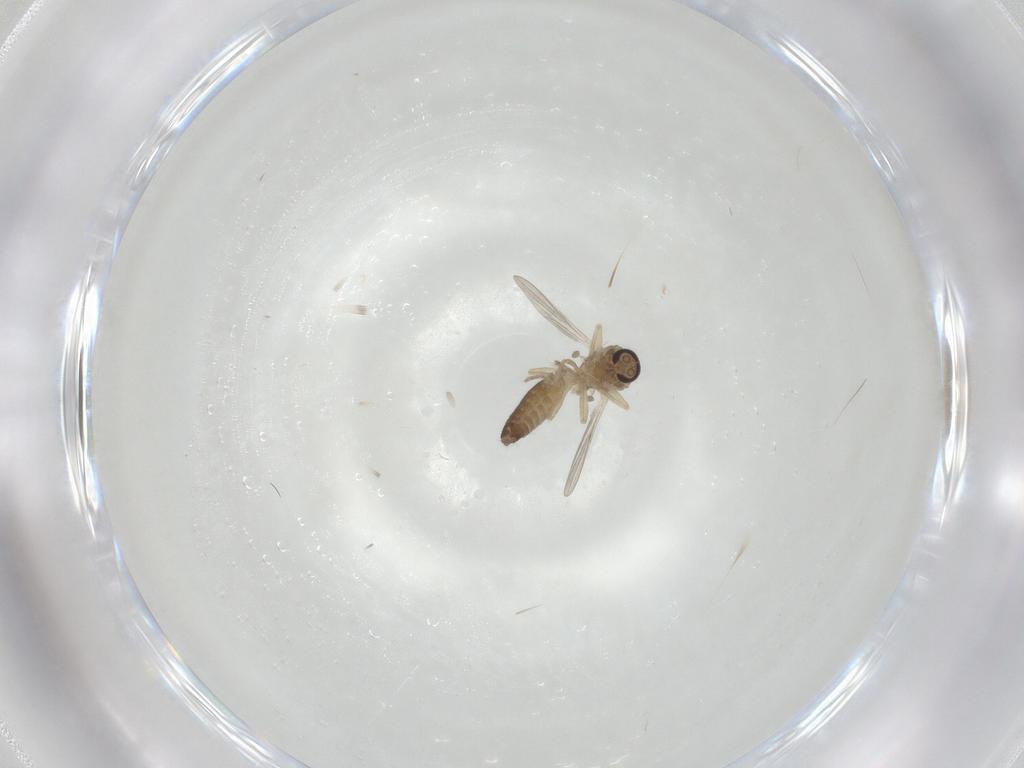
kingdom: Animalia
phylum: Arthropoda
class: Insecta
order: Diptera
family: Ceratopogonidae
